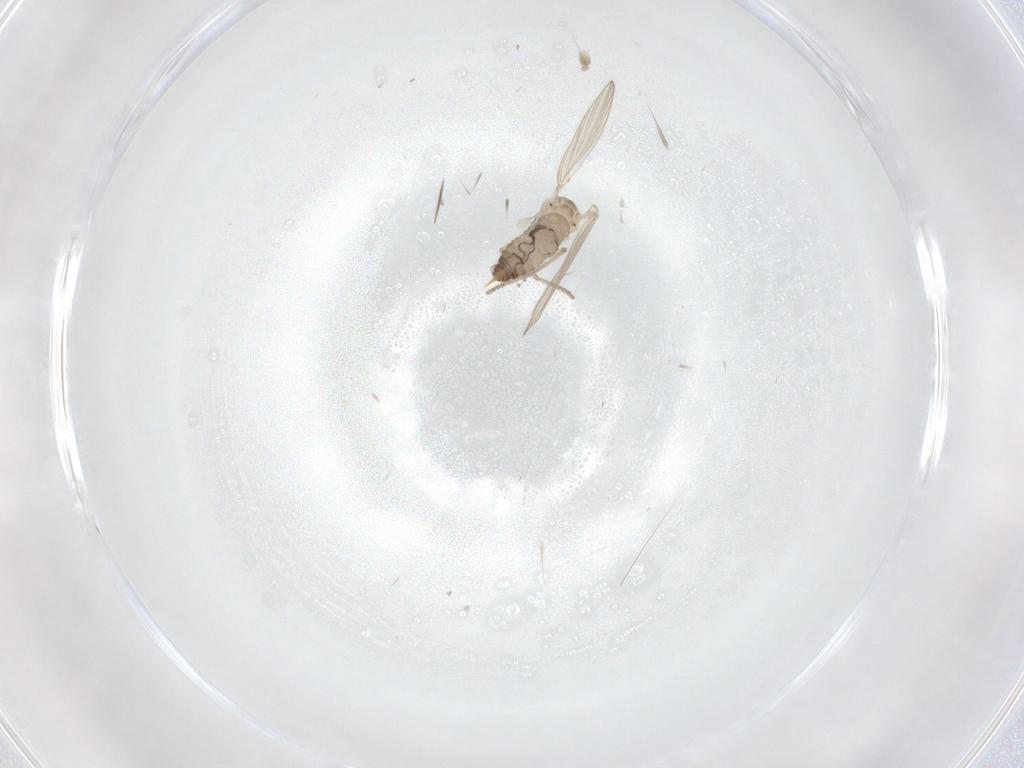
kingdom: Animalia
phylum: Arthropoda
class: Insecta
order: Diptera
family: Psychodidae
